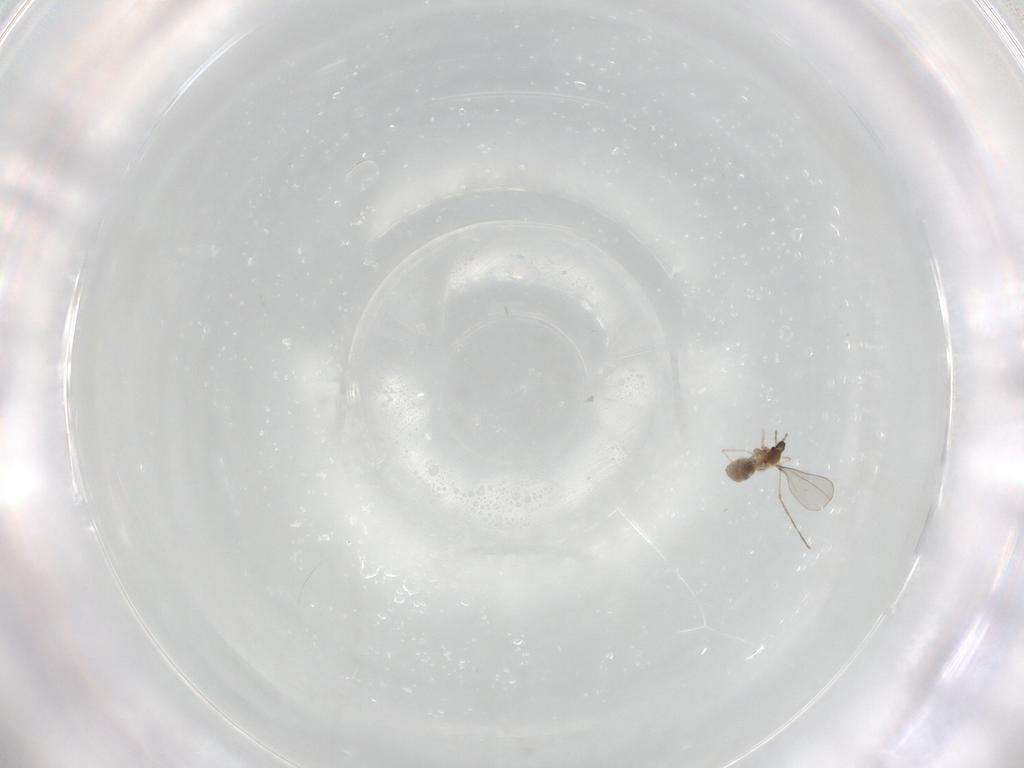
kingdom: Animalia
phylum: Arthropoda
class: Insecta
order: Diptera
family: Cecidomyiidae
